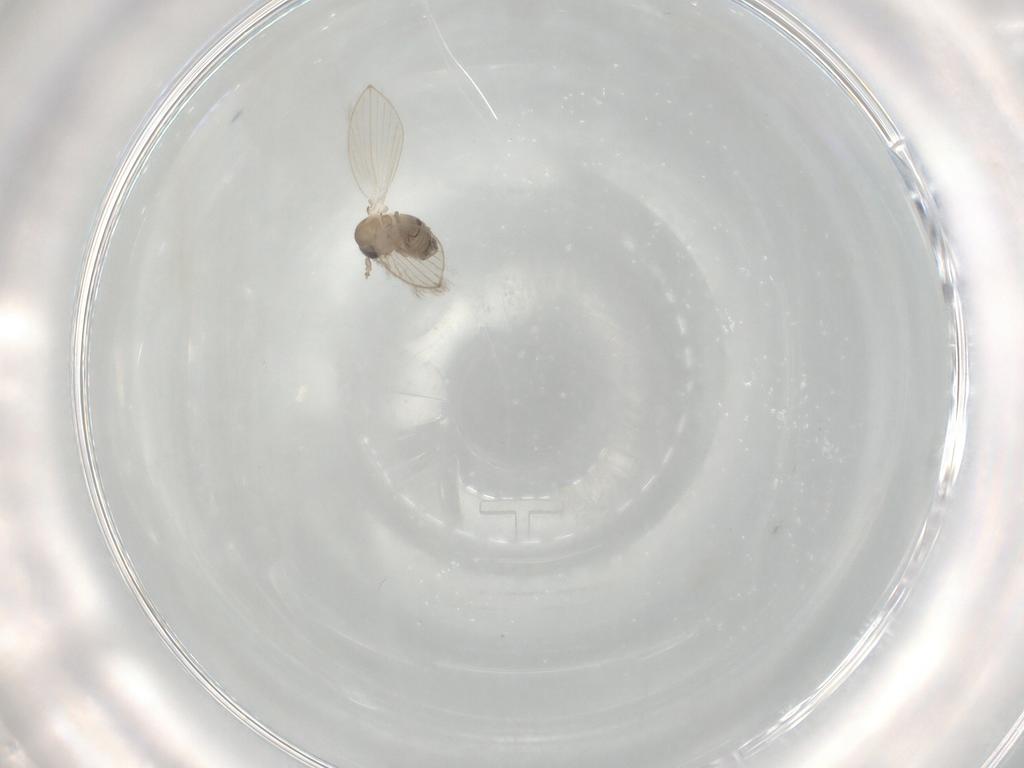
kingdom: Animalia
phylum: Arthropoda
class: Insecta
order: Diptera
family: Chironomidae
